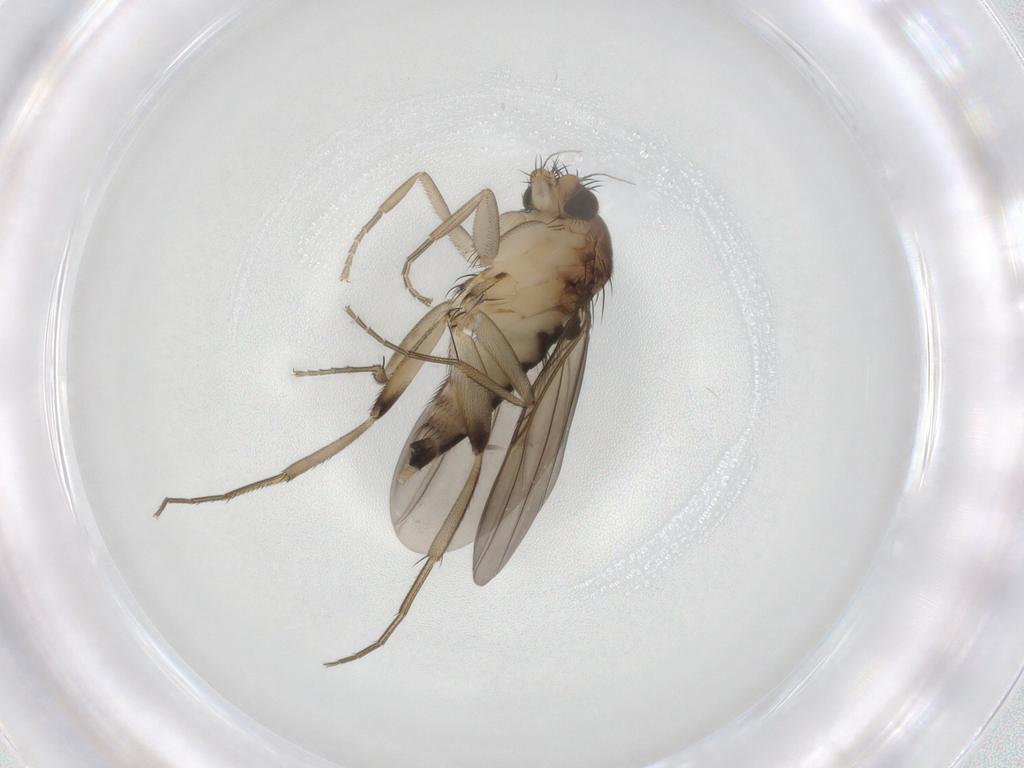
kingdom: Animalia
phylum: Arthropoda
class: Insecta
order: Diptera
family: Phoridae
